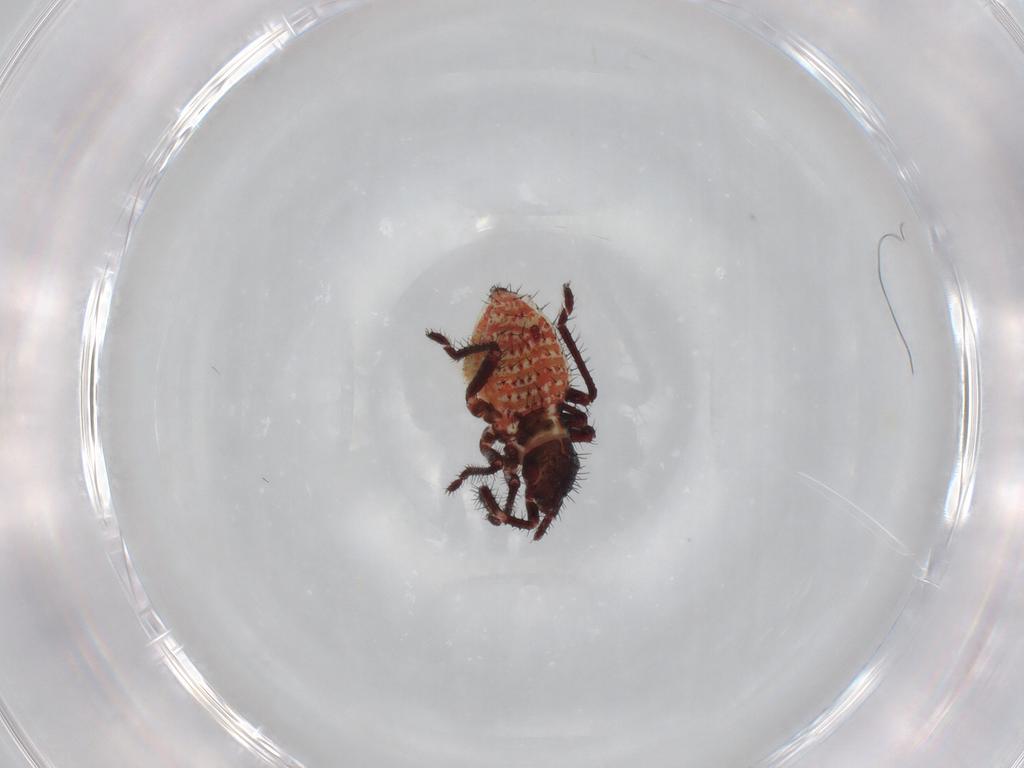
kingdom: Animalia
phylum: Arthropoda
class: Insecta
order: Hemiptera
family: Rhopalidae
